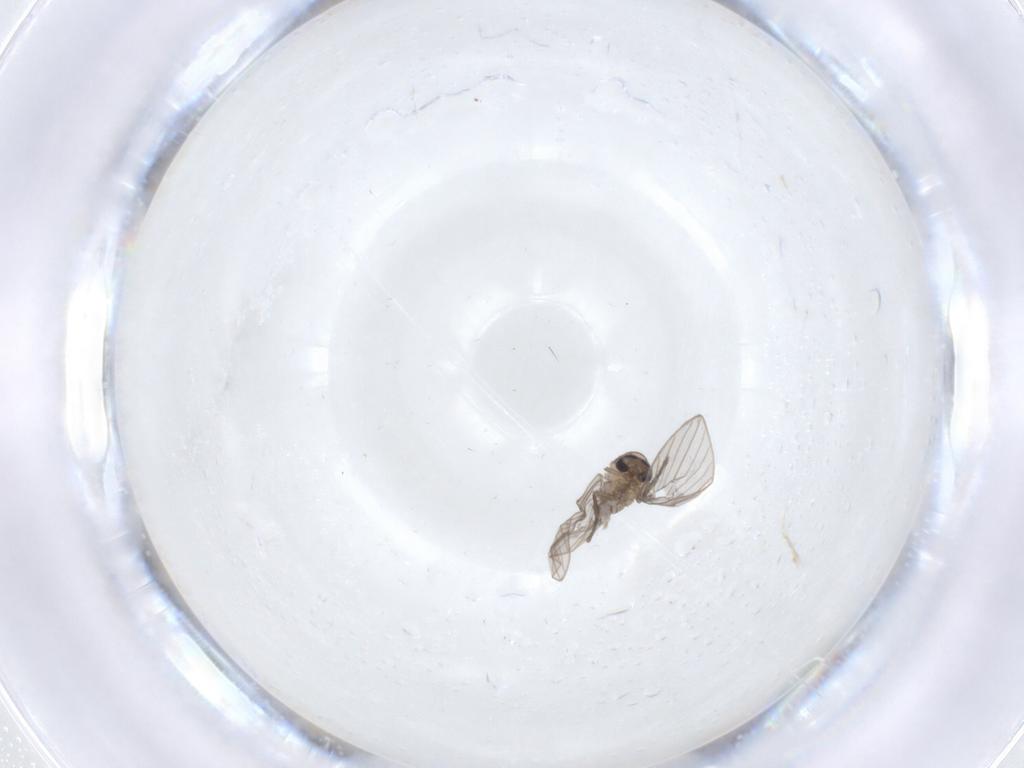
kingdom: Animalia
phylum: Arthropoda
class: Insecta
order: Diptera
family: Psychodidae
